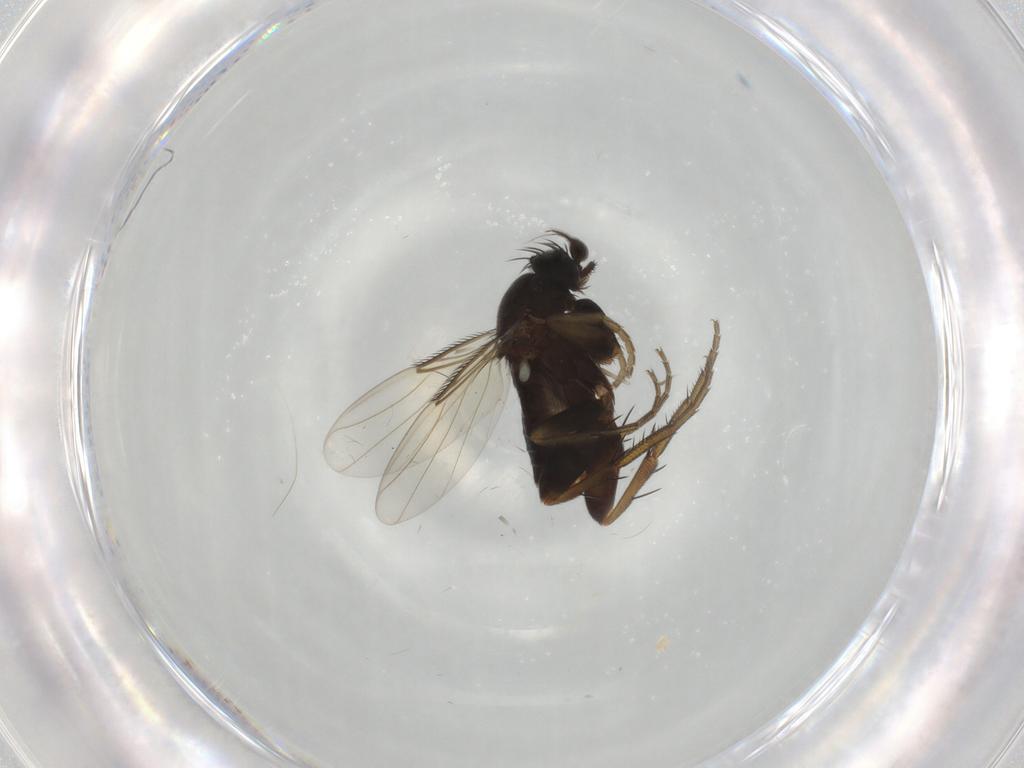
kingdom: Animalia
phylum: Arthropoda
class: Insecta
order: Diptera
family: Phoridae
